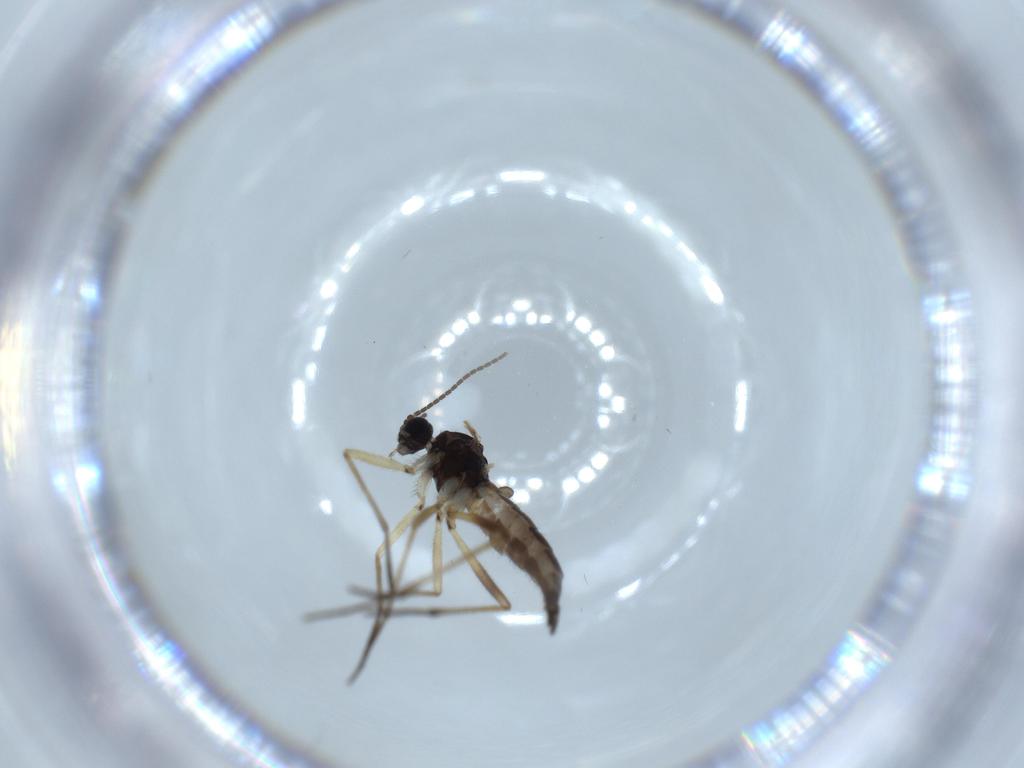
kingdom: Animalia
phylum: Arthropoda
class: Insecta
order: Diptera
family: Sciaridae
